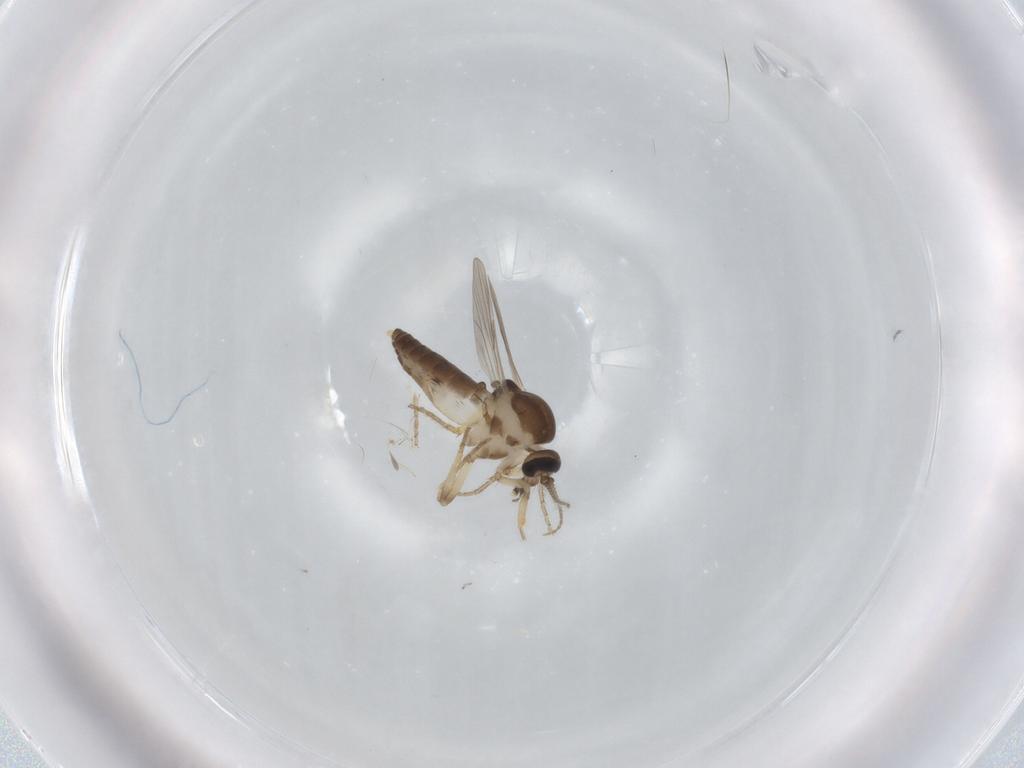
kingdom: Animalia
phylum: Arthropoda
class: Insecta
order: Diptera
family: Ceratopogonidae
